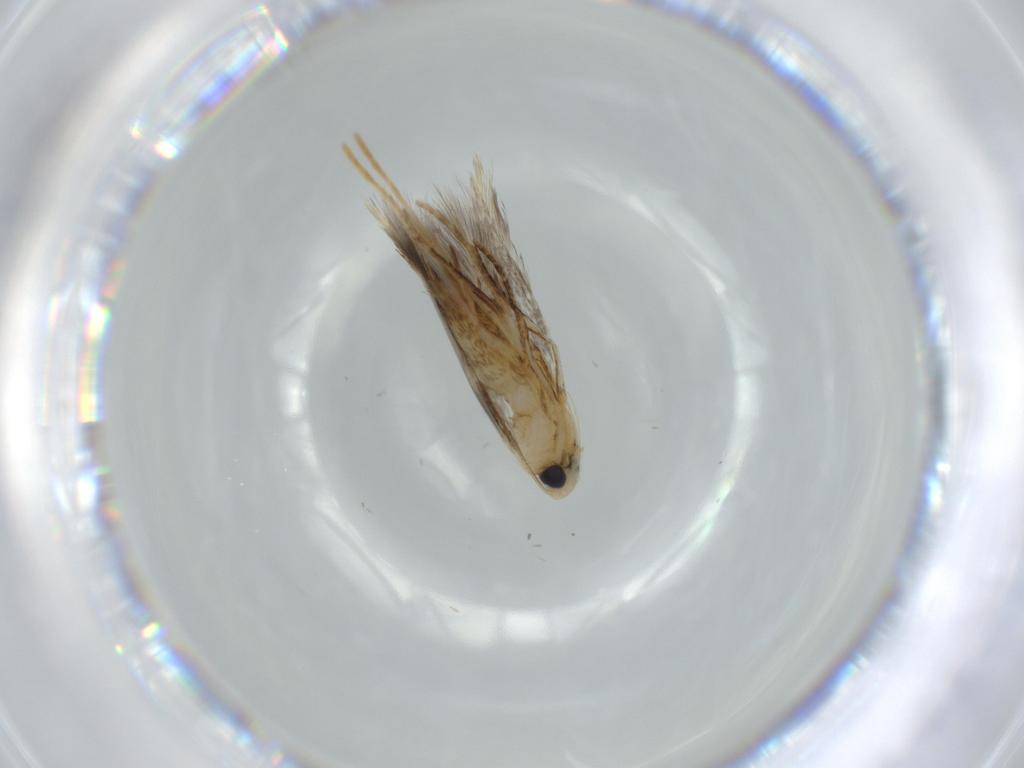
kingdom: Animalia
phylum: Arthropoda
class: Insecta
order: Lepidoptera
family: Tischeriidae
